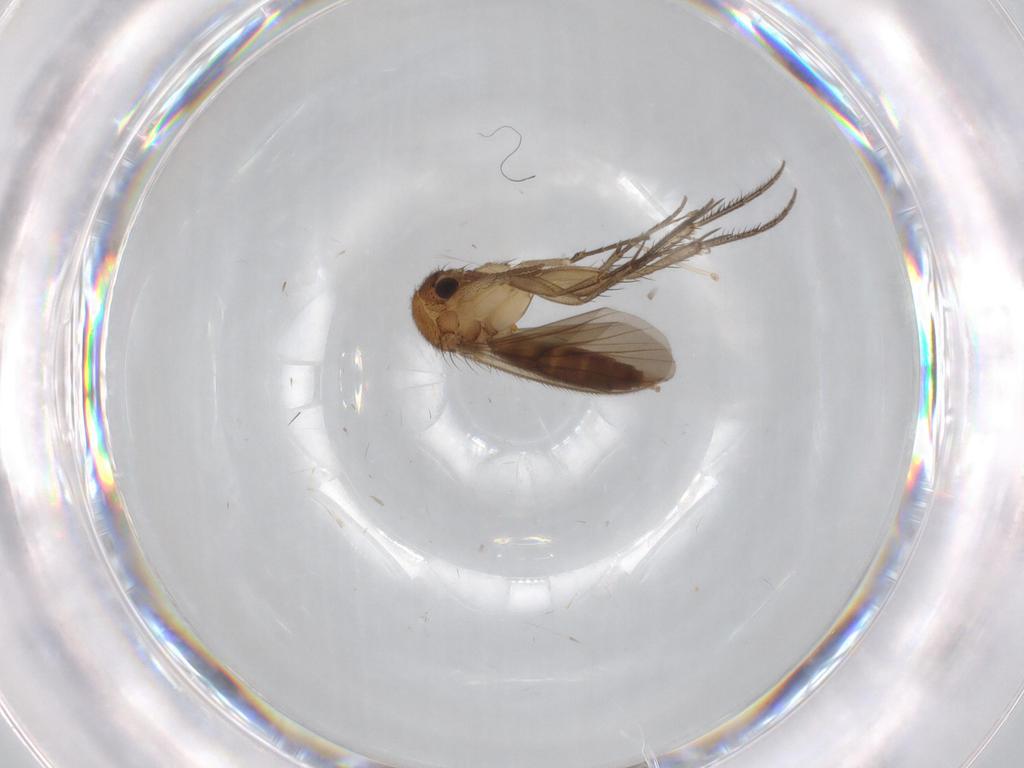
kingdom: Animalia
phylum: Arthropoda
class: Insecta
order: Diptera
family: Mycetophilidae
